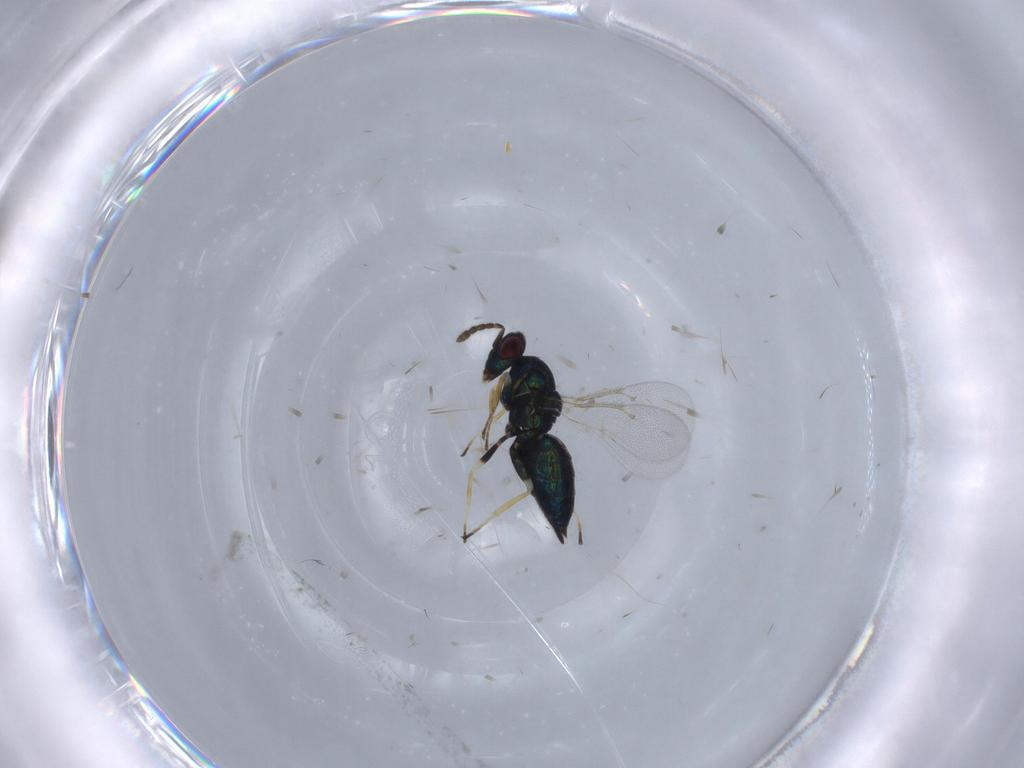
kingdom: Animalia
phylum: Arthropoda
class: Insecta
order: Hymenoptera
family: Eulophidae
